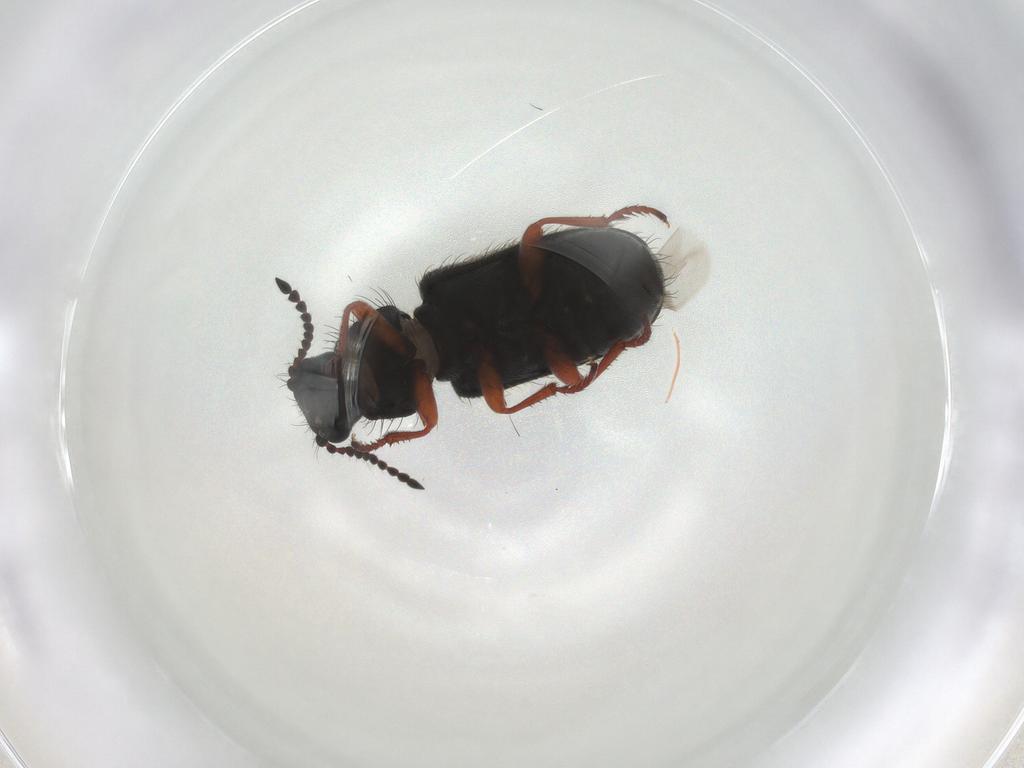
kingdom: Animalia
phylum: Arthropoda
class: Insecta
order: Coleoptera
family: Melyridae
